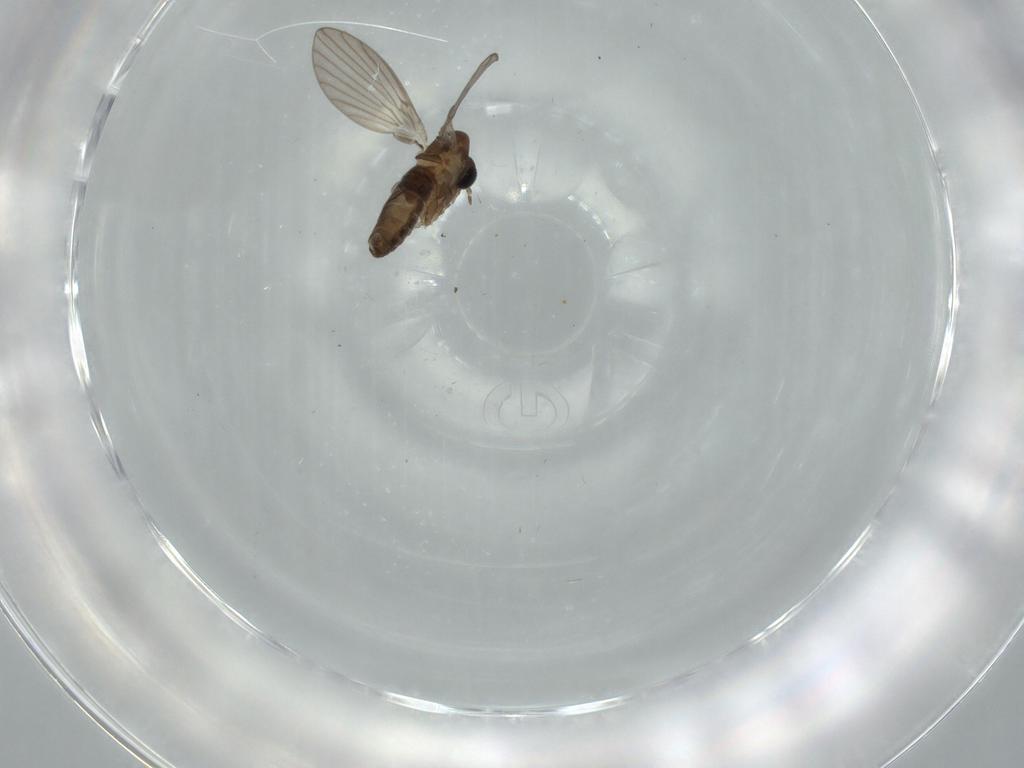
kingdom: Animalia
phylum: Arthropoda
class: Insecta
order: Diptera
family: Psychodidae
